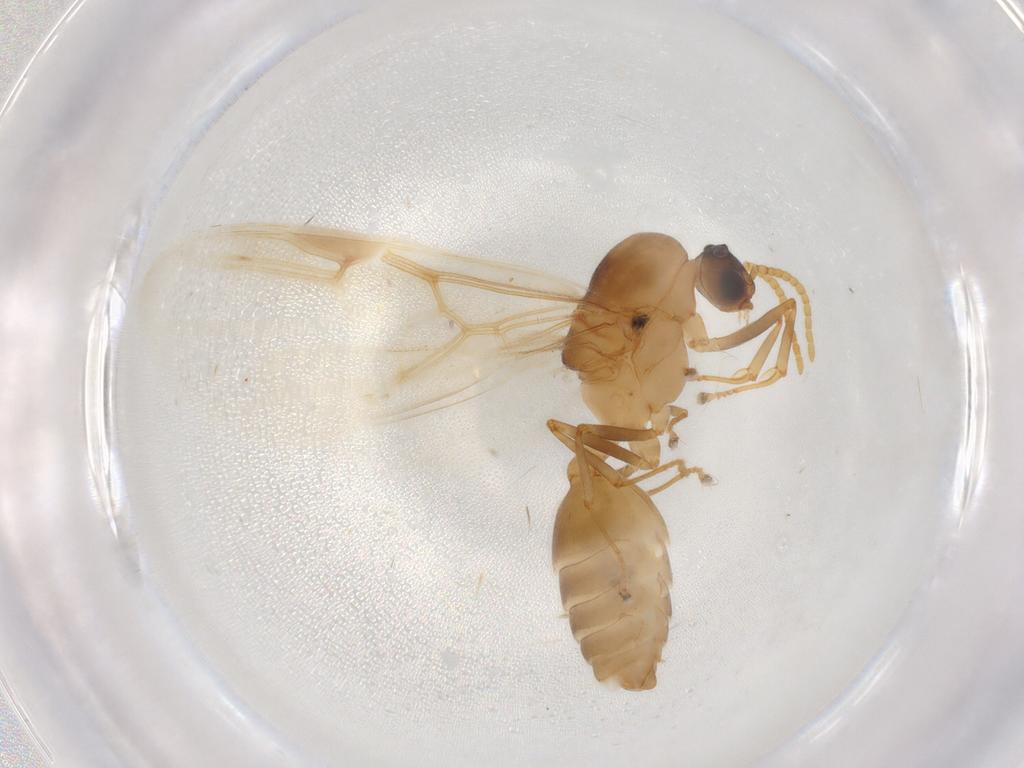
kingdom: Animalia
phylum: Arthropoda
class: Insecta
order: Hymenoptera
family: Formicidae
